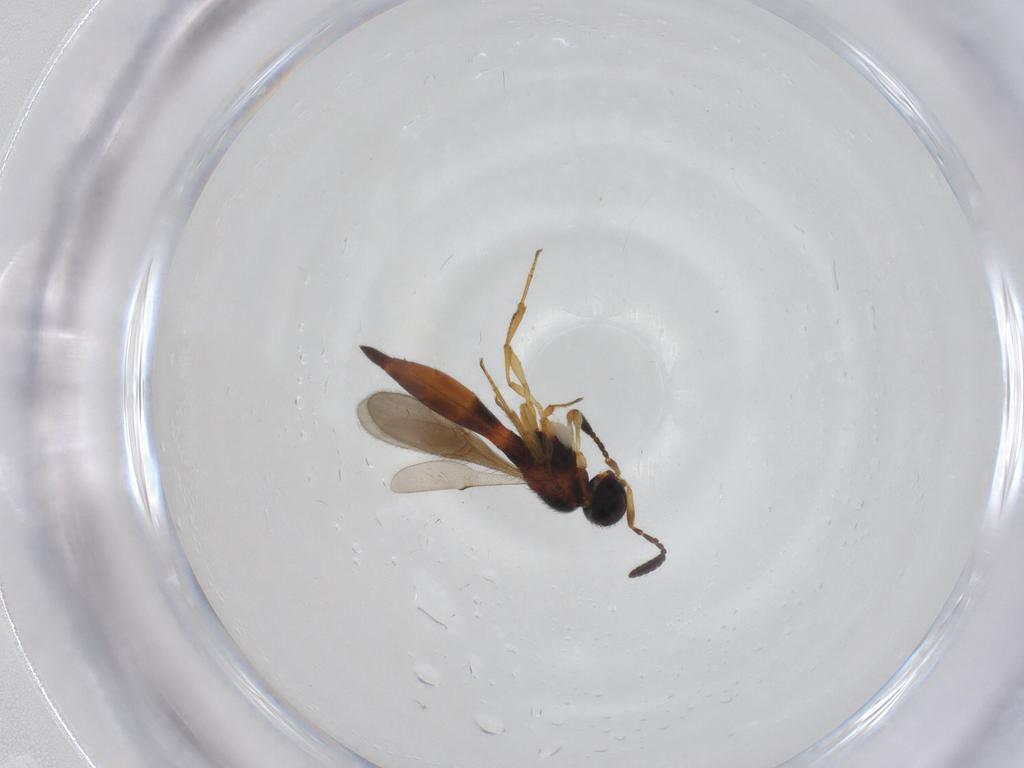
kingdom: Animalia
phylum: Arthropoda
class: Insecta
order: Hymenoptera
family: Scelionidae
